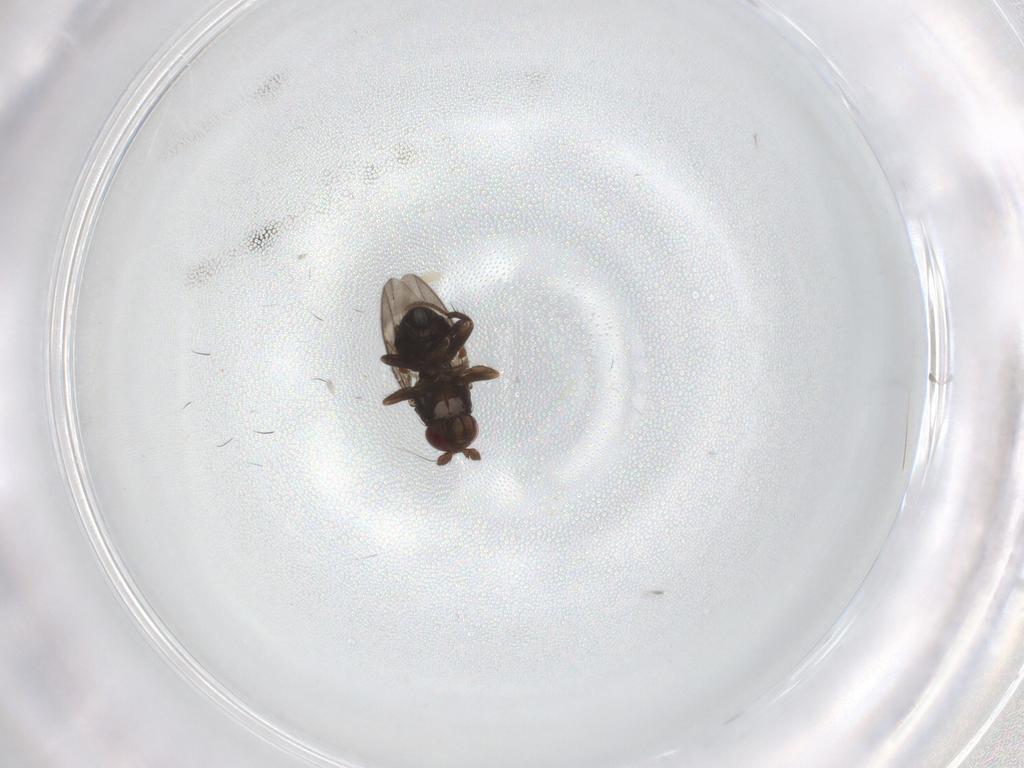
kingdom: Animalia
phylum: Arthropoda
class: Insecta
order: Diptera
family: Sphaeroceridae
